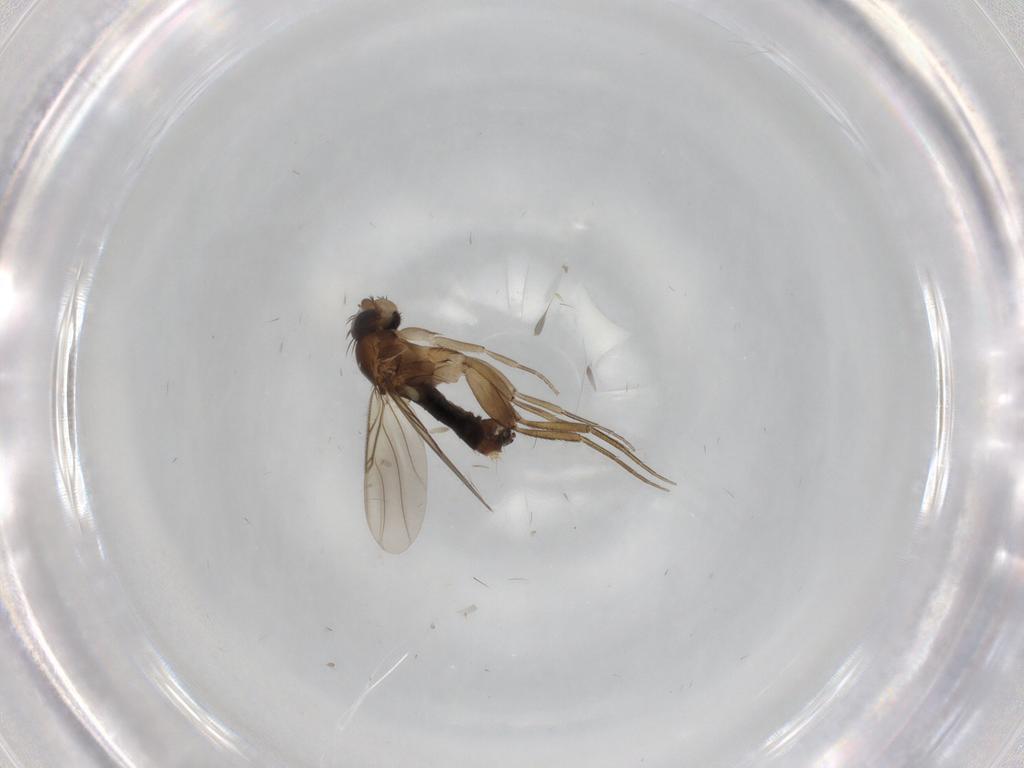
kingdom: Animalia
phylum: Arthropoda
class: Insecta
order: Diptera
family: Phoridae
